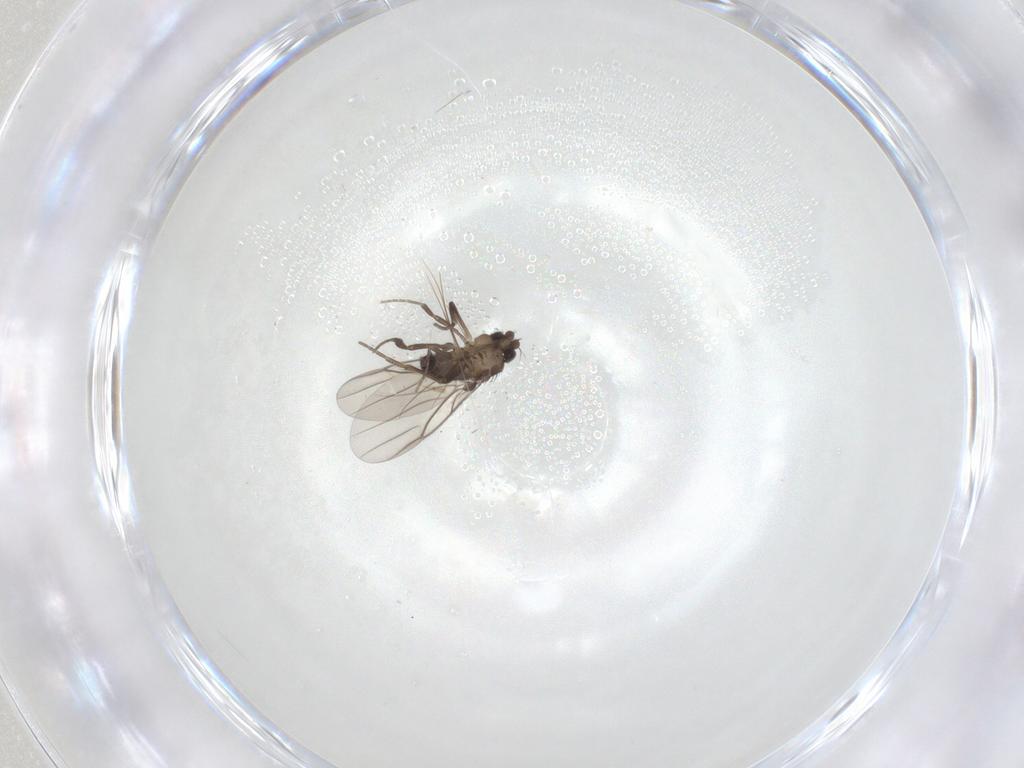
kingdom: Animalia
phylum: Arthropoda
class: Insecta
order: Diptera
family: Phoridae
